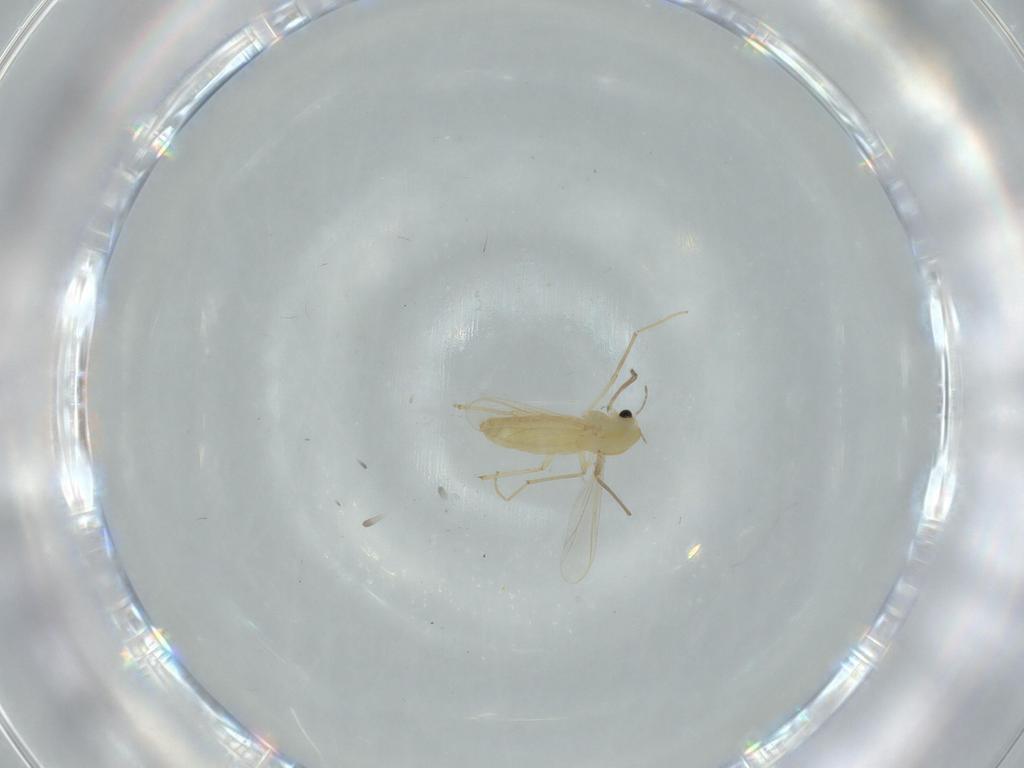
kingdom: Animalia
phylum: Arthropoda
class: Insecta
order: Diptera
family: Chironomidae
